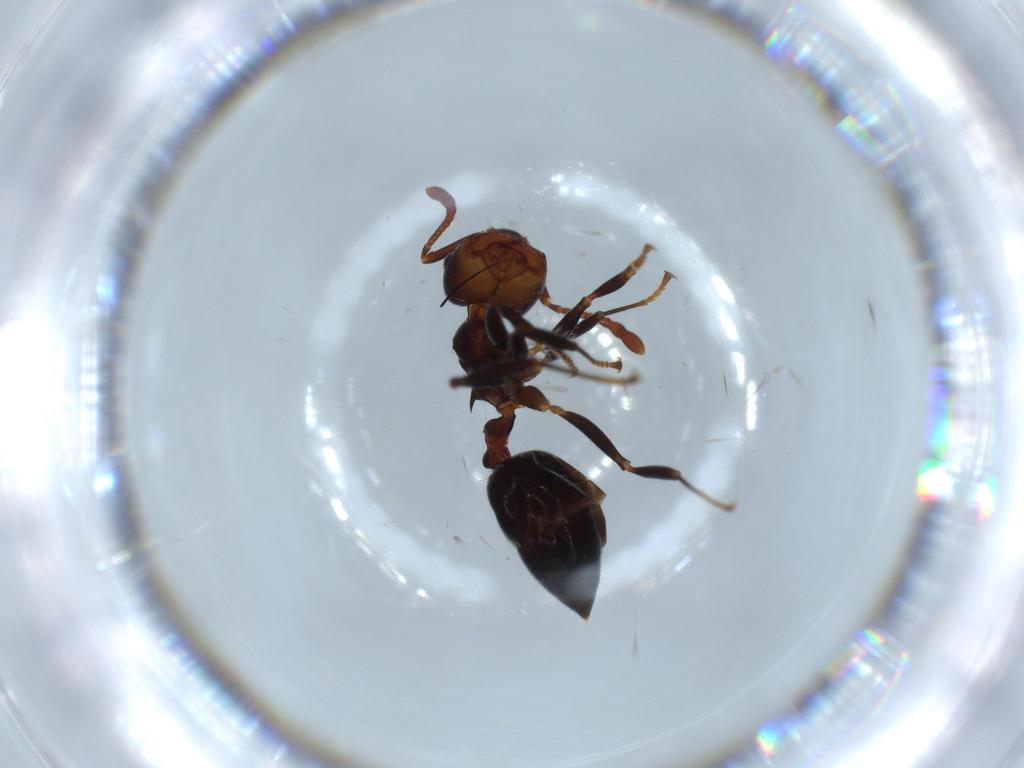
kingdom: Animalia
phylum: Arthropoda
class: Insecta
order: Hymenoptera
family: Formicidae
